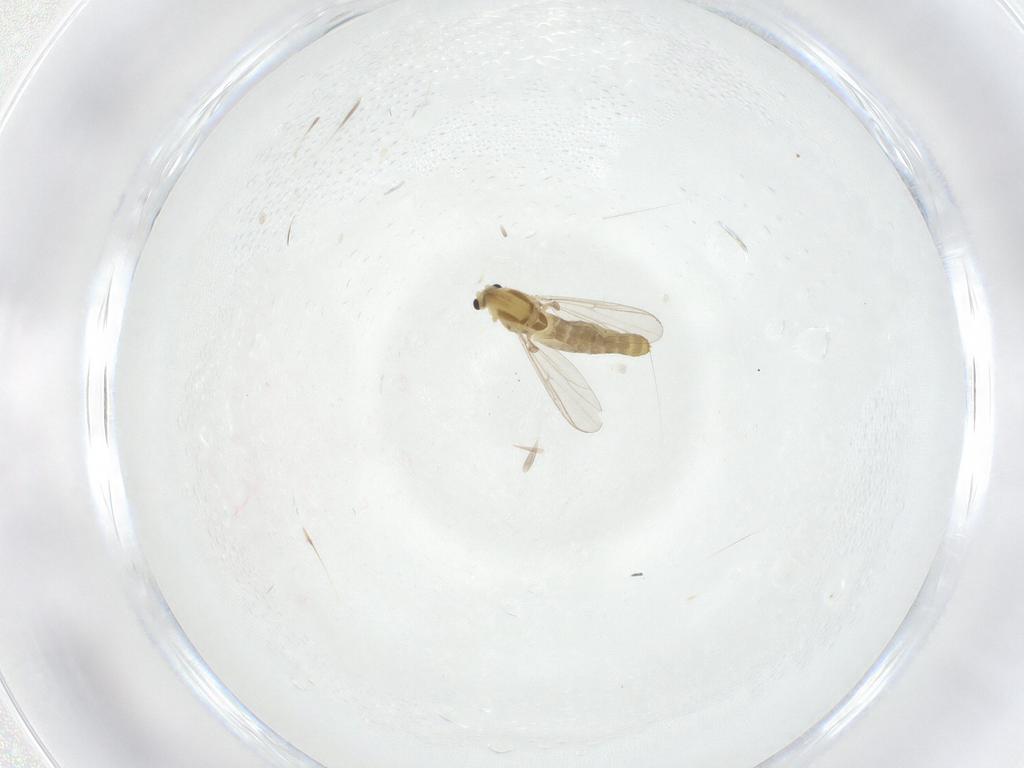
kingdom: Animalia
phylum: Arthropoda
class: Insecta
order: Diptera
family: Chironomidae
